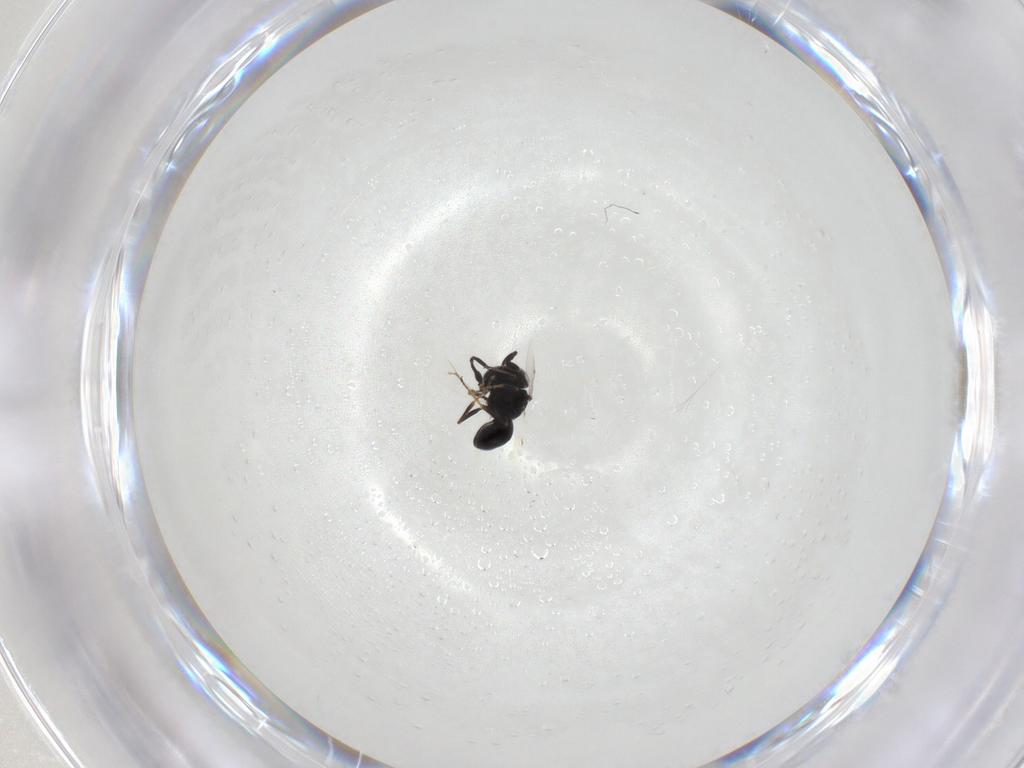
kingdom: Animalia
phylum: Arthropoda
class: Insecta
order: Hymenoptera
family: Scelionidae
